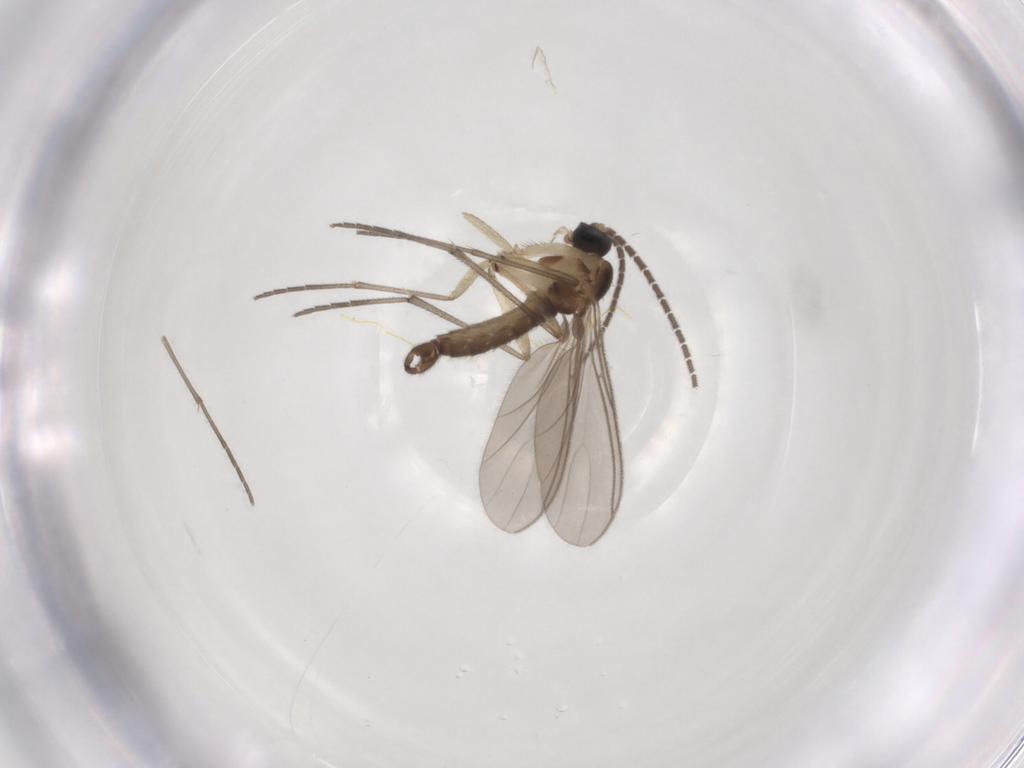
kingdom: Animalia
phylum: Arthropoda
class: Insecta
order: Diptera
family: Sciaridae
